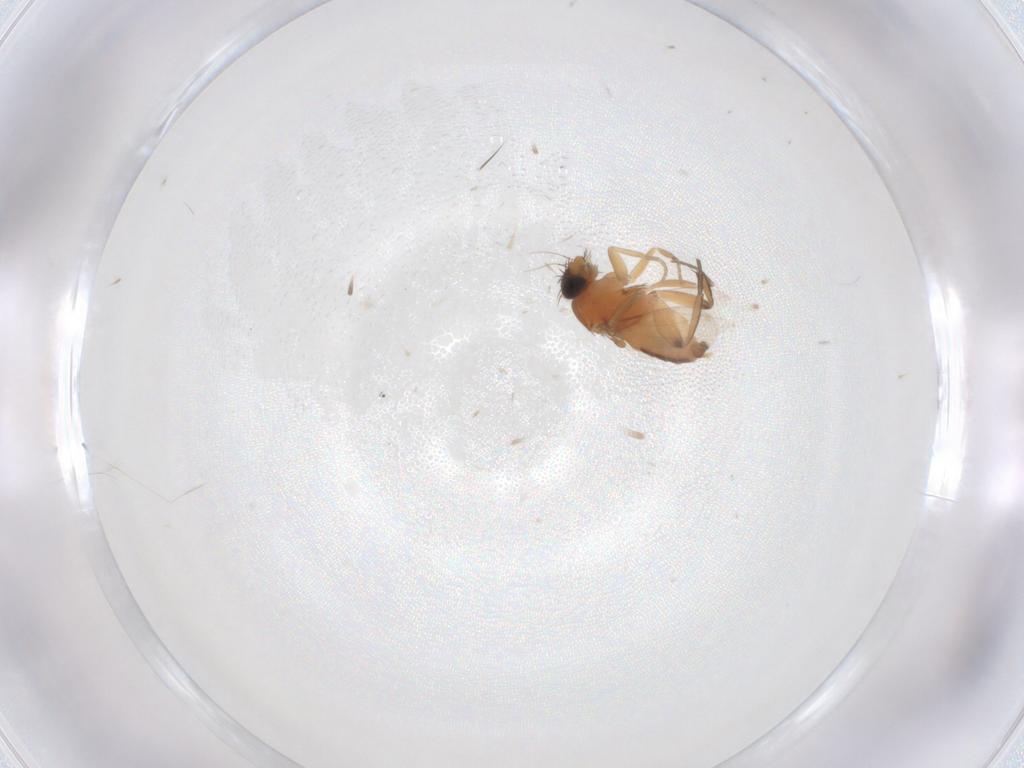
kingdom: Animalia
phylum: Arthropoda
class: Insecta
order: Diptera
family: Phoridae
